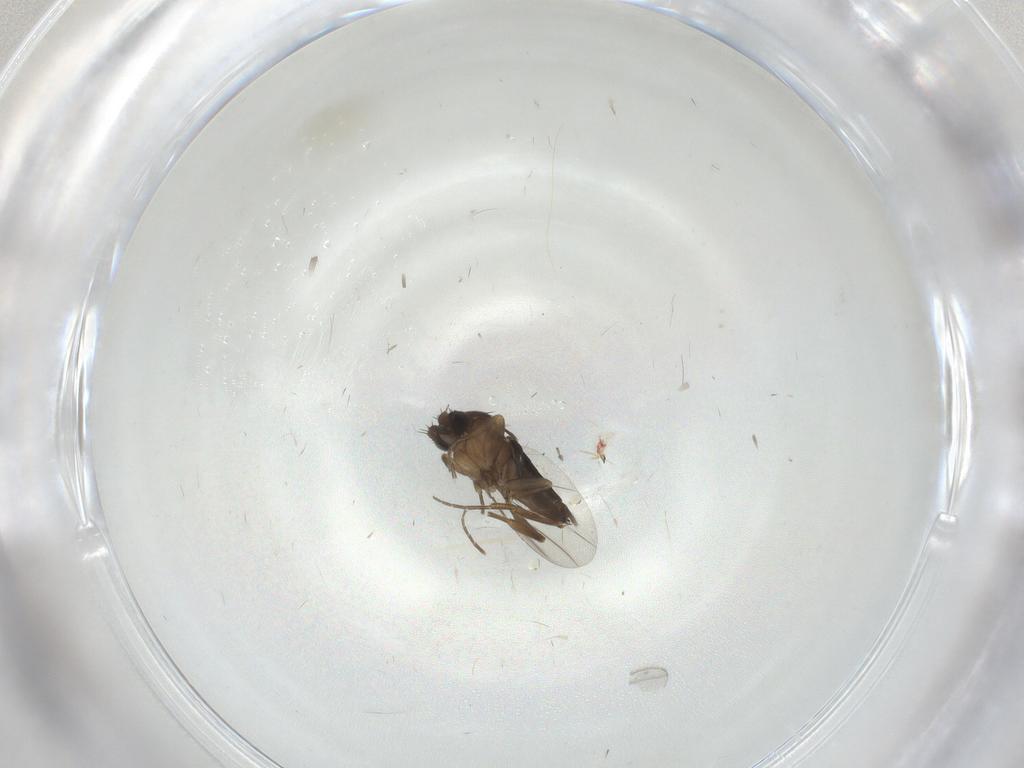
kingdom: Animalia
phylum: Arthropoda
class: Insecta
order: Diptera
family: Phoridae
